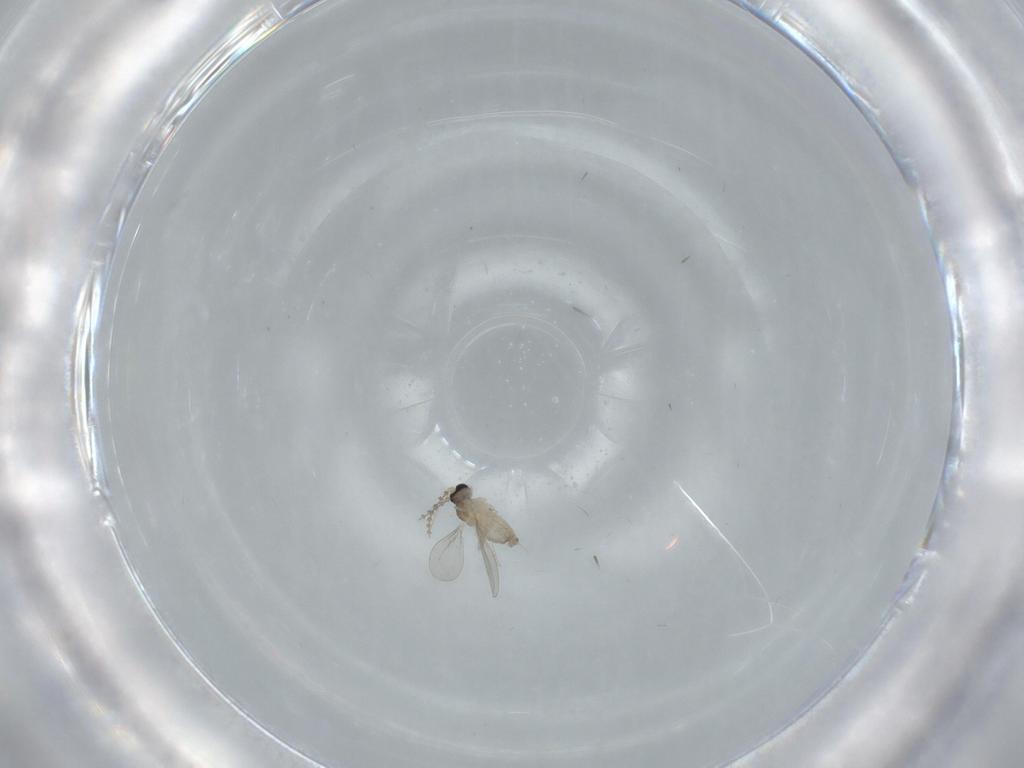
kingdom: Animalia
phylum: Arthropoda
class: Insecta
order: Diptera
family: Cecidomyiidae
